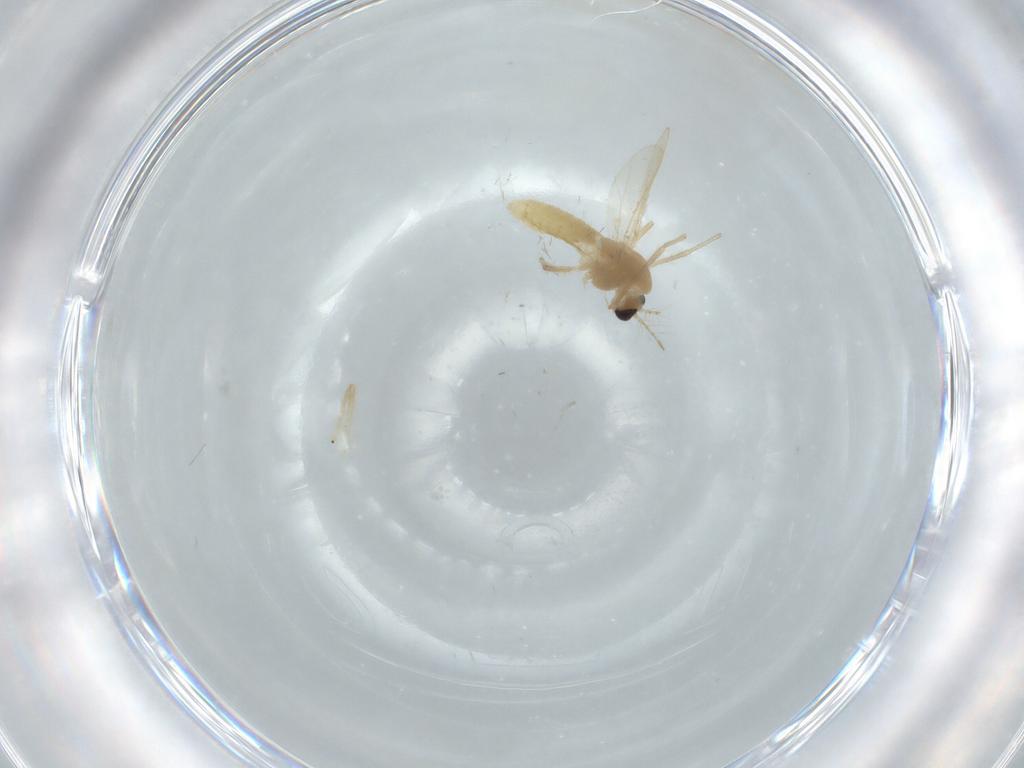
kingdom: Animalia
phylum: Arthropoda
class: Insecta
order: Diptera
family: Chironomidae
